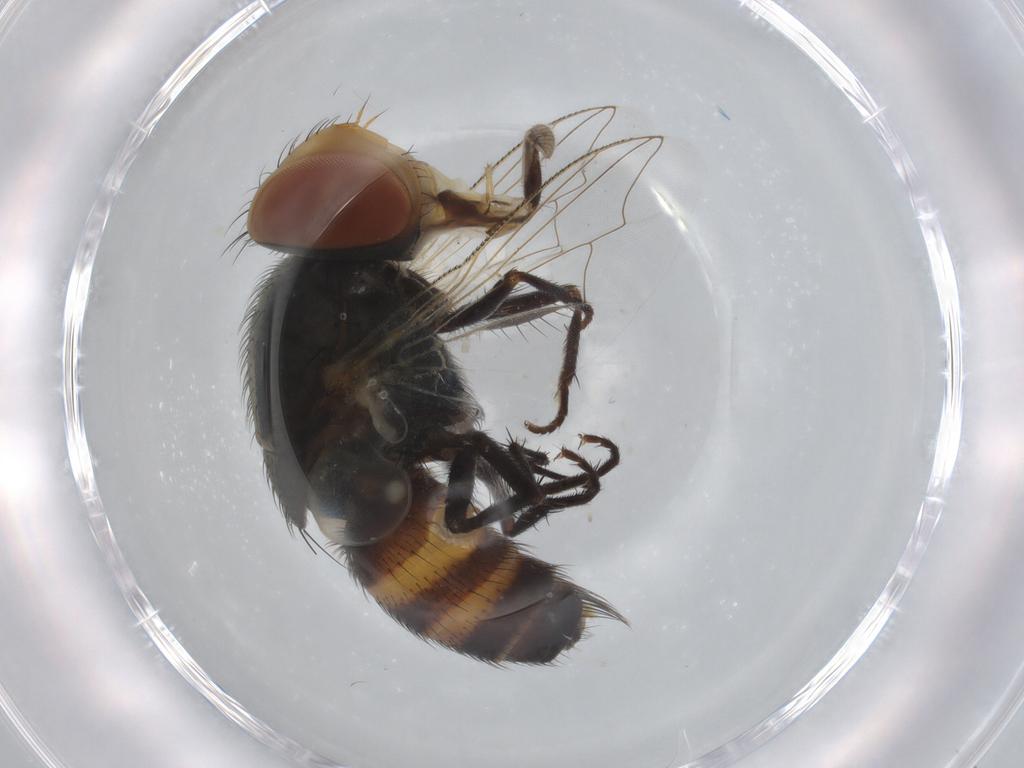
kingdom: Animalia
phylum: Arthropoda
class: Insecta
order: Diptera
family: Sarcophagidae
